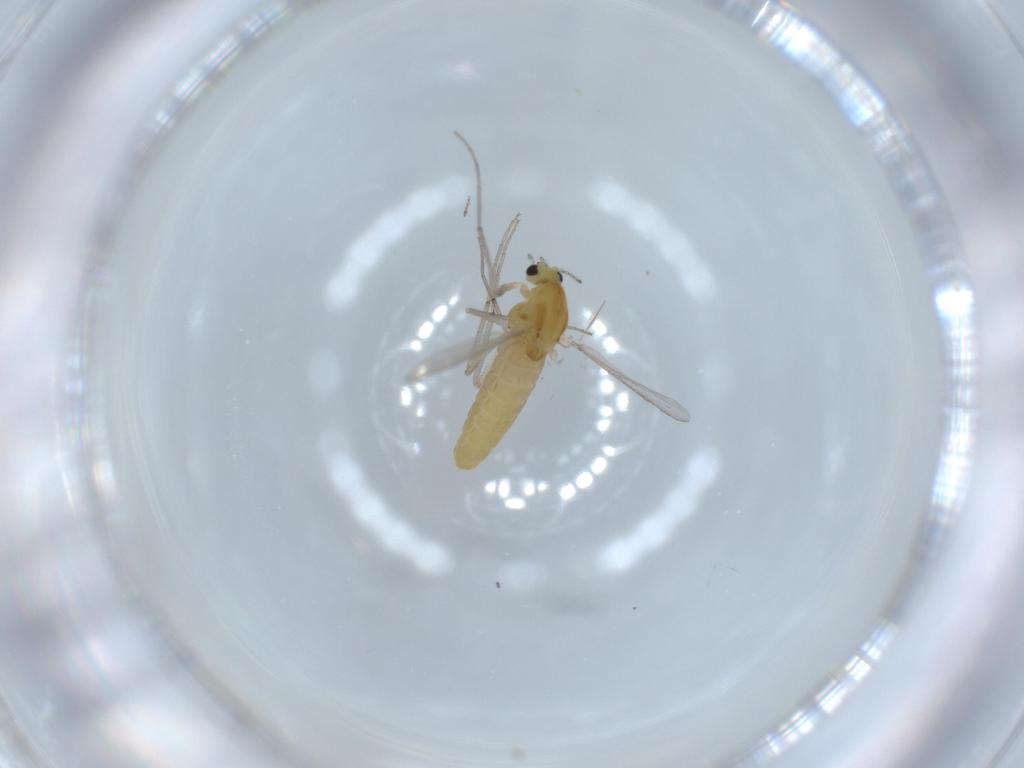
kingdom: Animalia
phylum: Arthropoda
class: Insecta
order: Diptera
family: Chironomidae
